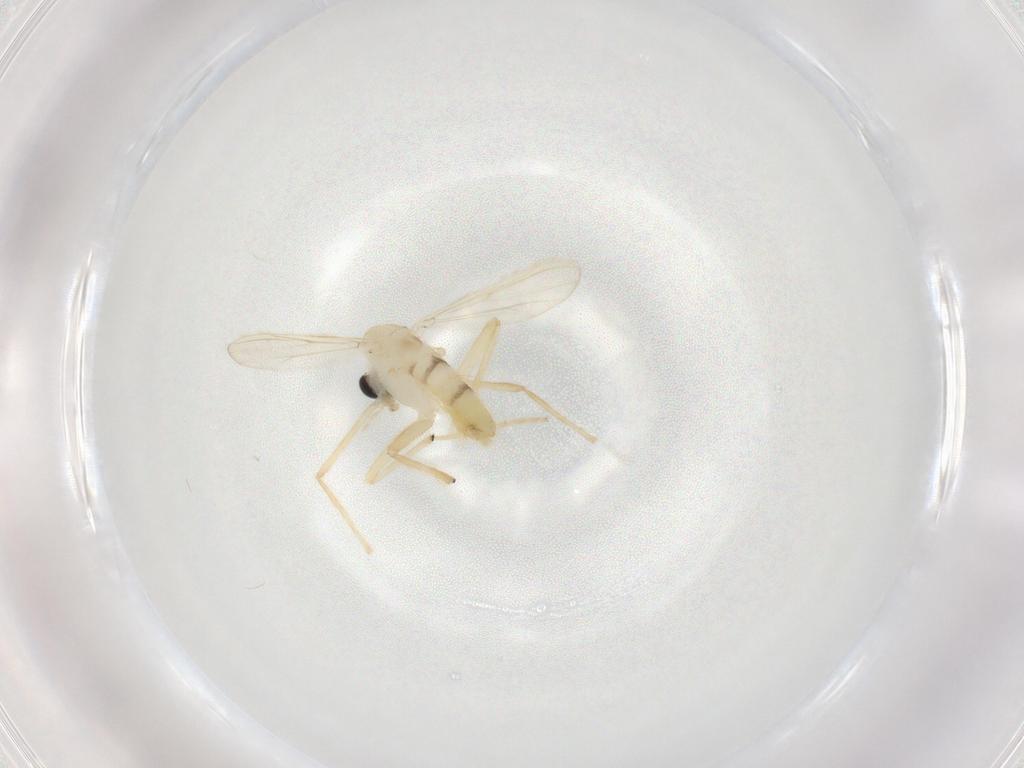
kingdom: Animalia
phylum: Arthropoda
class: Insecta
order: Diptera
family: Chironomidae
